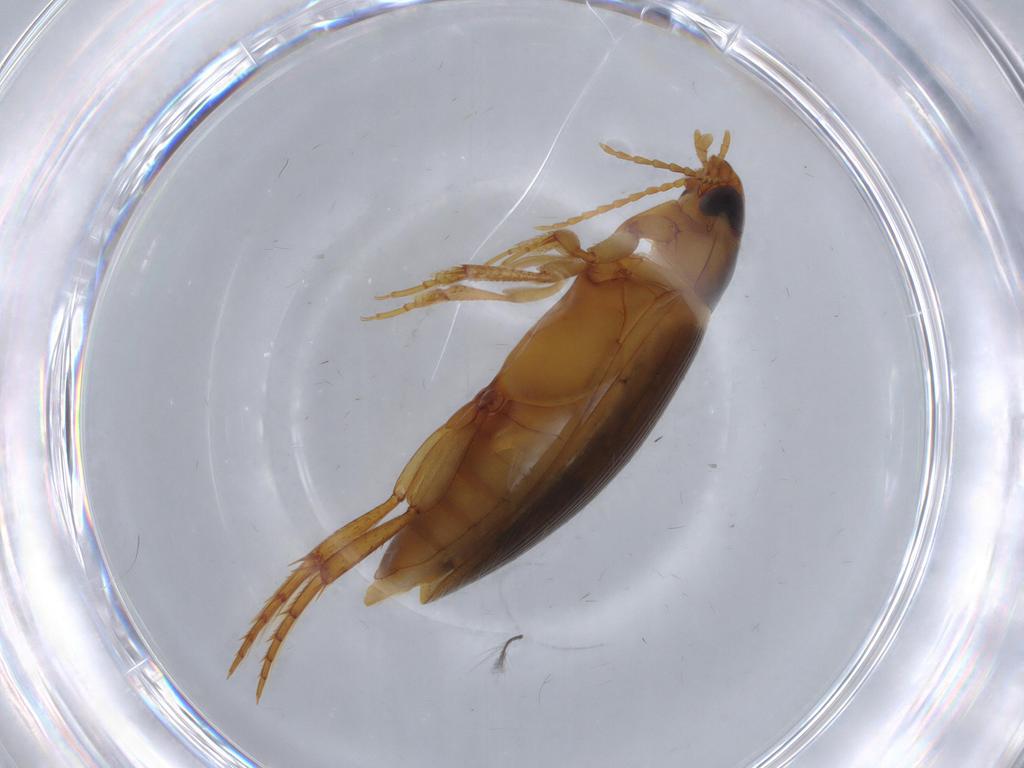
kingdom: Animalia
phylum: Arthropoda
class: Insecta
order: Coleoptera
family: Dytiscidae
